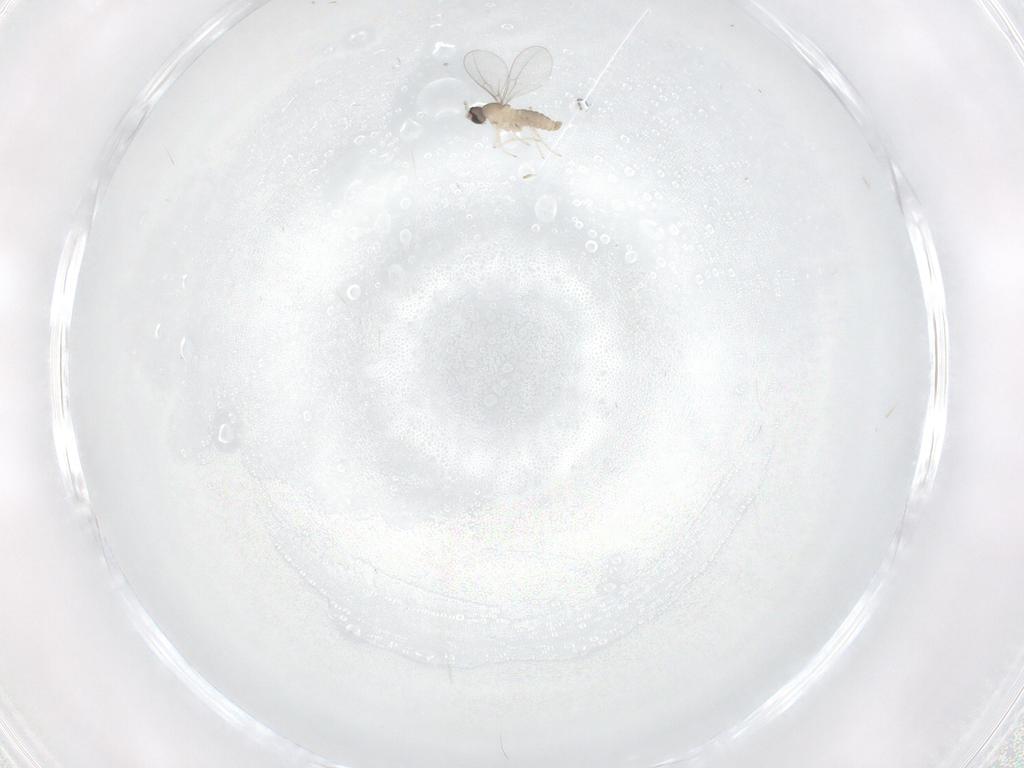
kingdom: Animalia
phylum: Arthropoda
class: Insecta
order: Diptera
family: Cecidomyiidae
